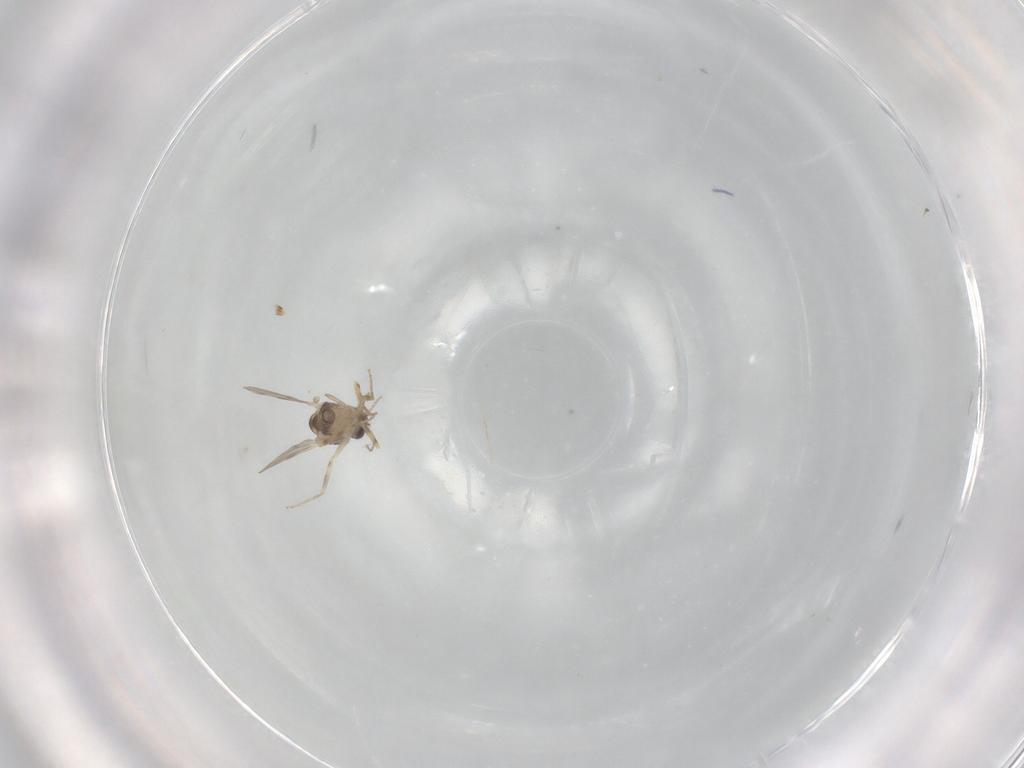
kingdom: Animalia
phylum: Arthropoda
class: Insecta
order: Diptera
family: Ceratopogonidae
